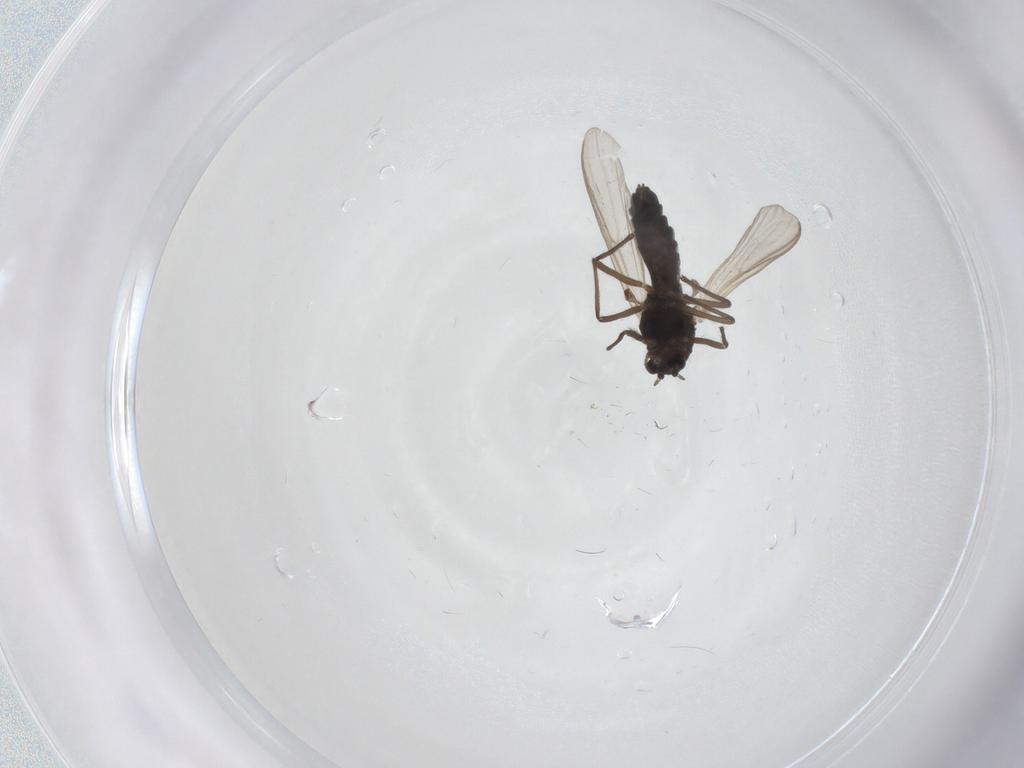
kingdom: Animalia
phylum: Arthropoda
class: Insecta
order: Diptera
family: Chironomidae
